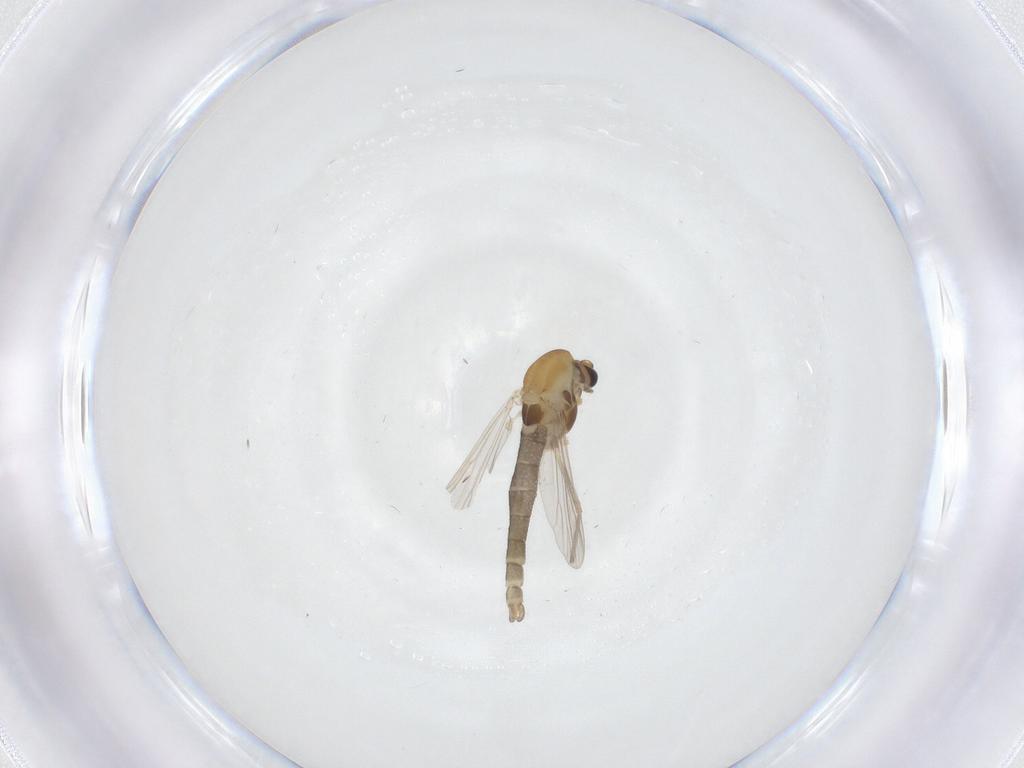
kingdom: Animalia
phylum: Arthropoda
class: Insecta
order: Diptera
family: Chironomidae
